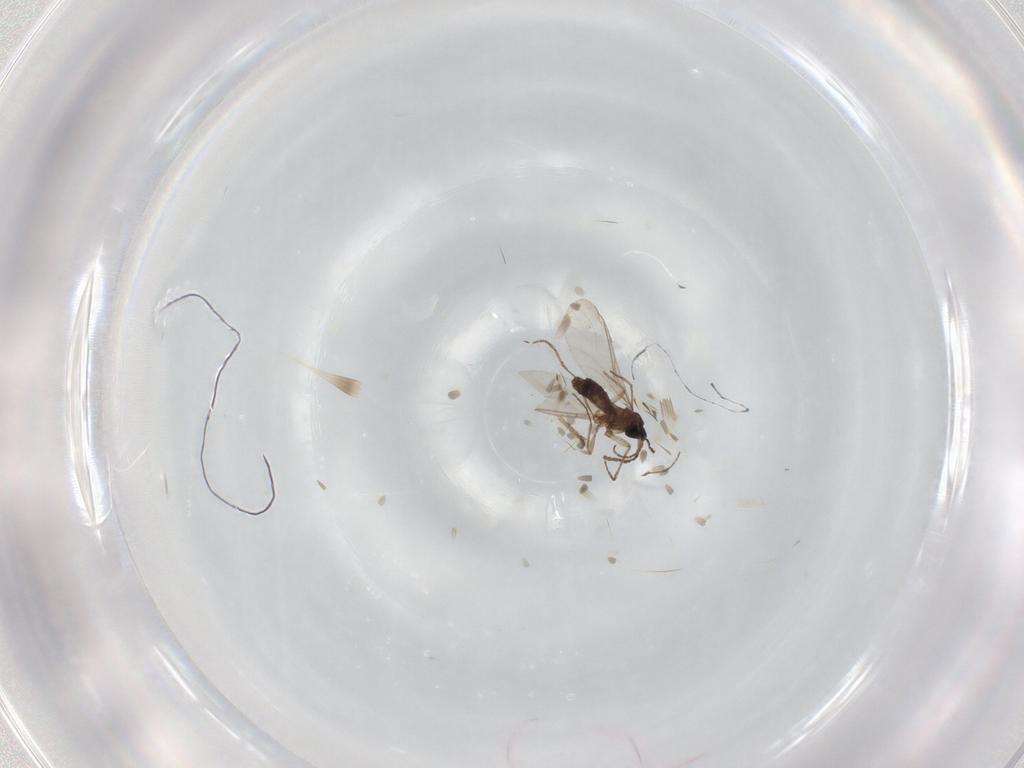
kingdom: Animalia
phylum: Arthropoda
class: Insecta
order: Diptera
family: Sciaridae
